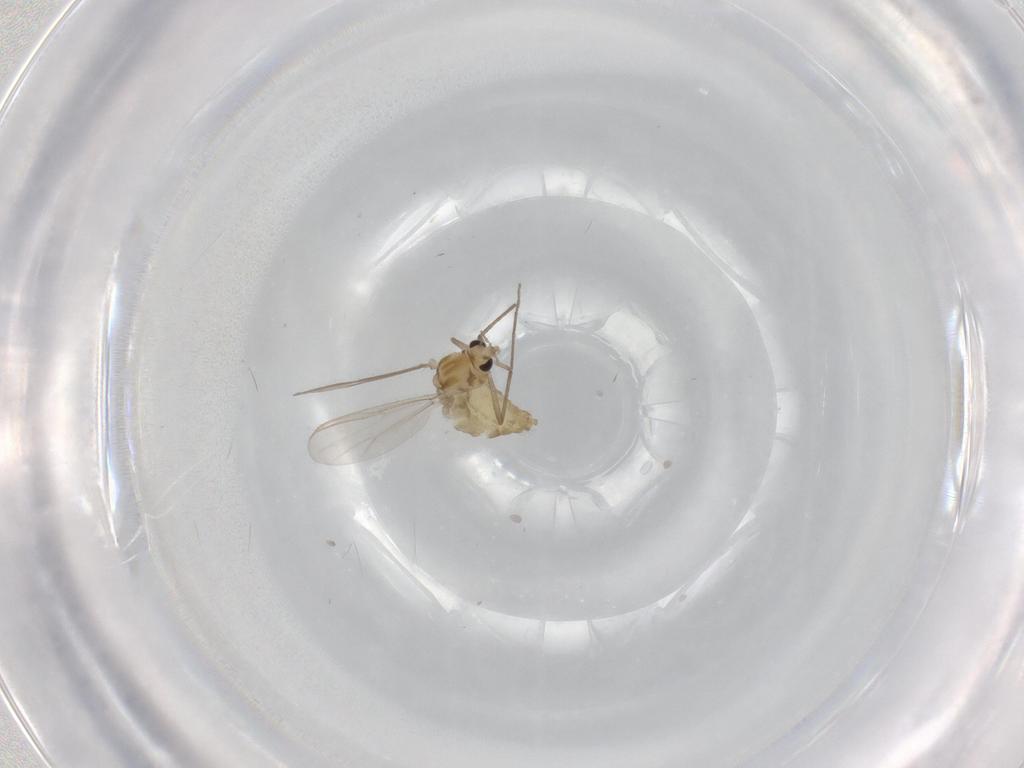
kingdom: Animalia
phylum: Arthropoda
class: Insecta
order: Diptera
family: Chironomidae
